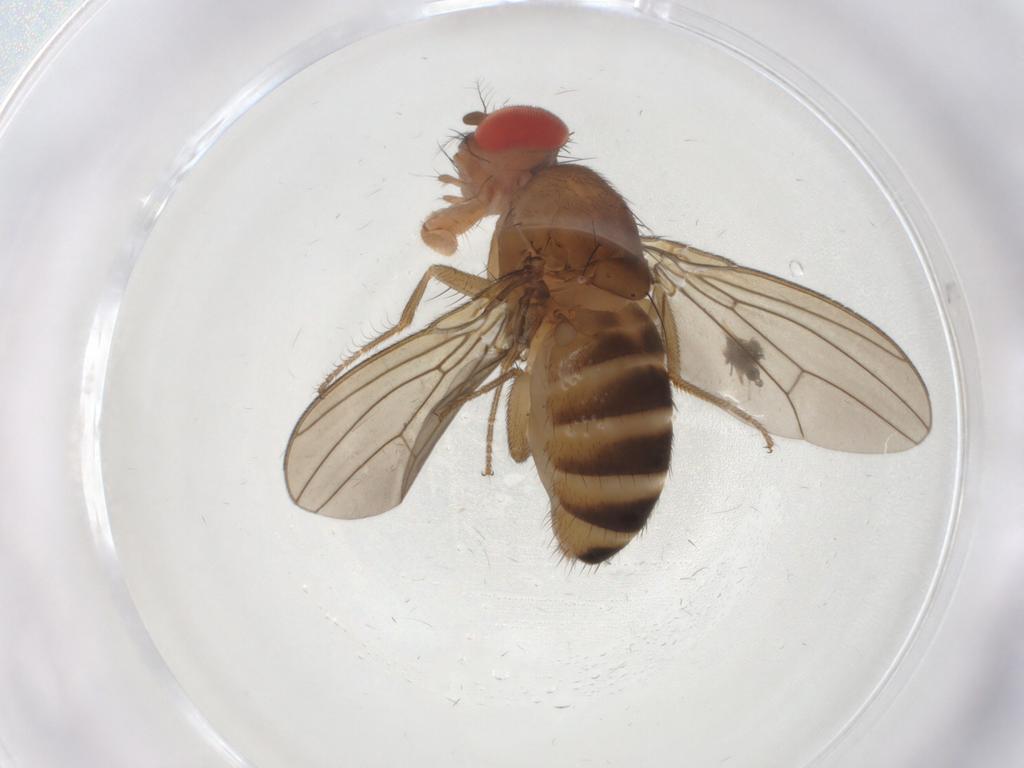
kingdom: Animalia
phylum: Arthropoda
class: Insecta
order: Diptera
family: Drosophilidae
